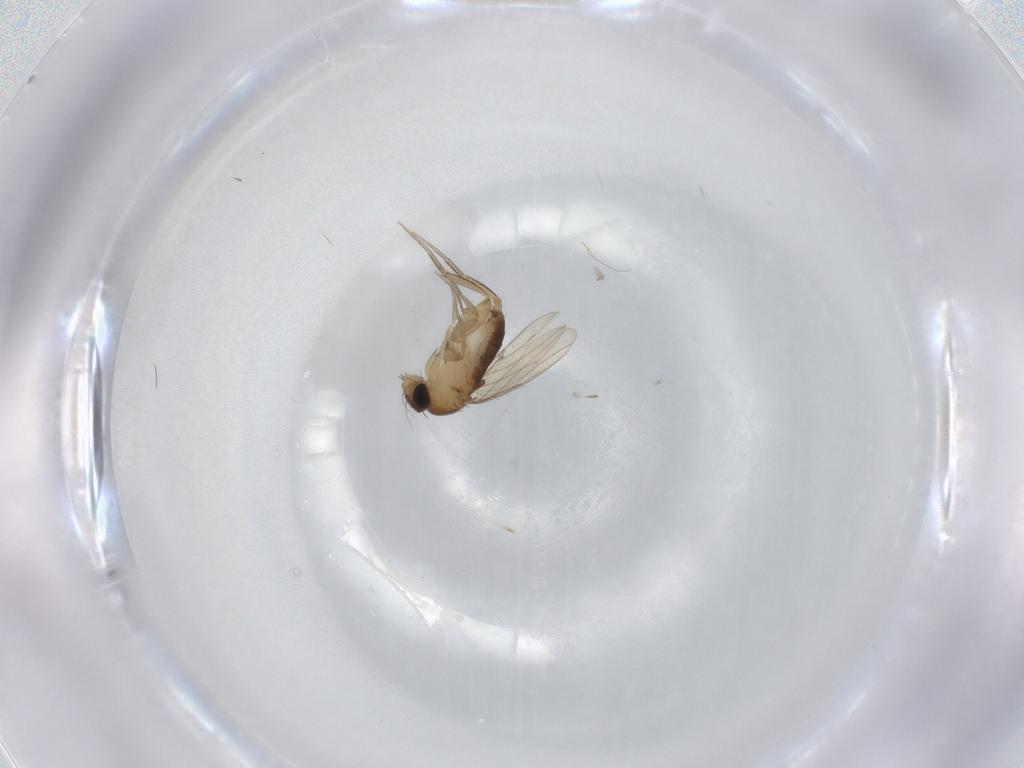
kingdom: Animalia
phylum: Arthropoda
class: Insecta
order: Diptera
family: Phoridae
